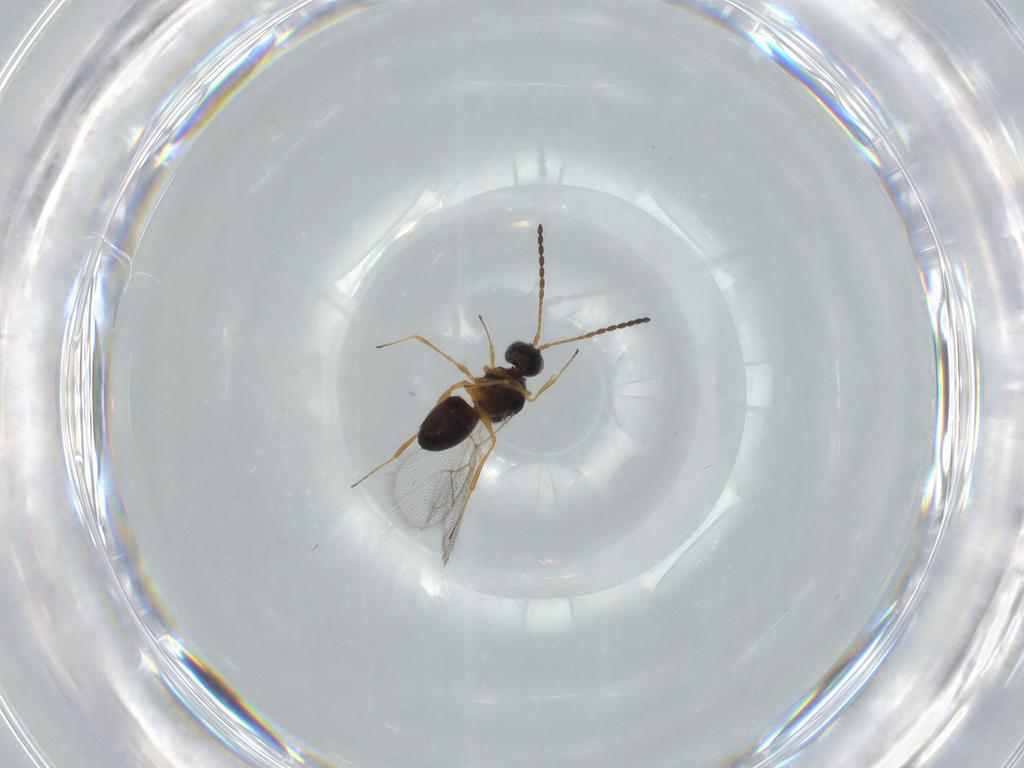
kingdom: Animalia
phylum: Arthropoda
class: Insecta
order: Hymenoptera
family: Figitidae
